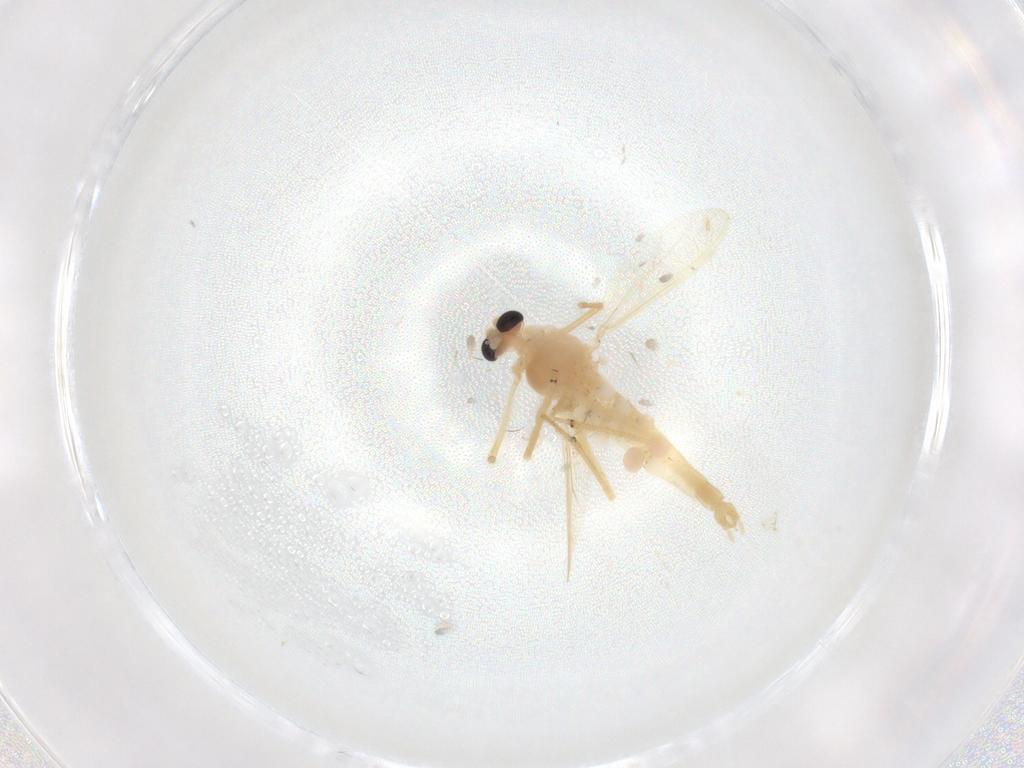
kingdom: Animalia
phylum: Arthropoda
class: Insecta
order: Diptera
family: Chironomidae
